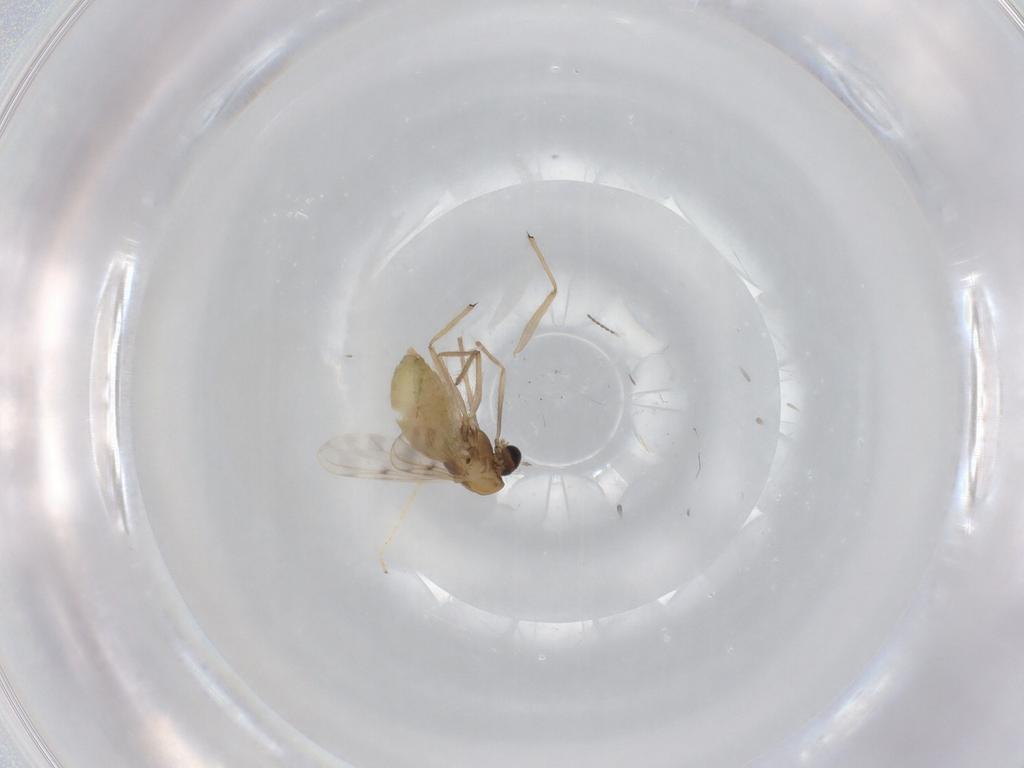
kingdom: Animalia
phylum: Arthropoda
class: Insecta
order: Diptera
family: Chironomidae
